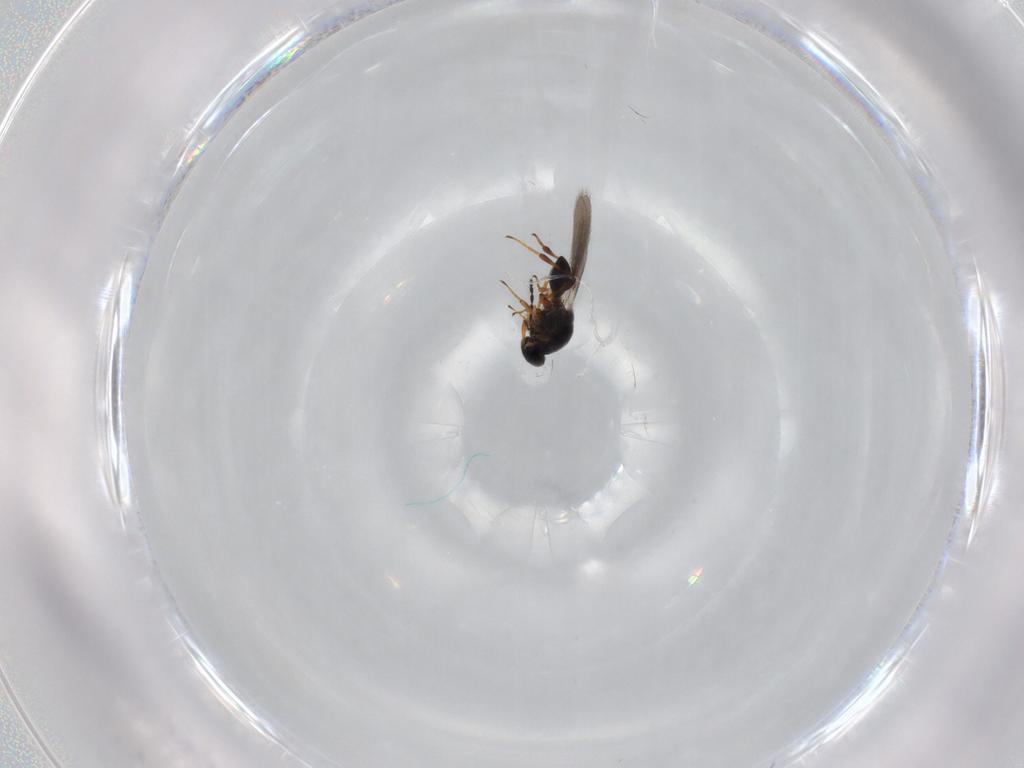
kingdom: Animalia
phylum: Arthropoda
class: Insecta
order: Hymenoptera
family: Platygastridae
